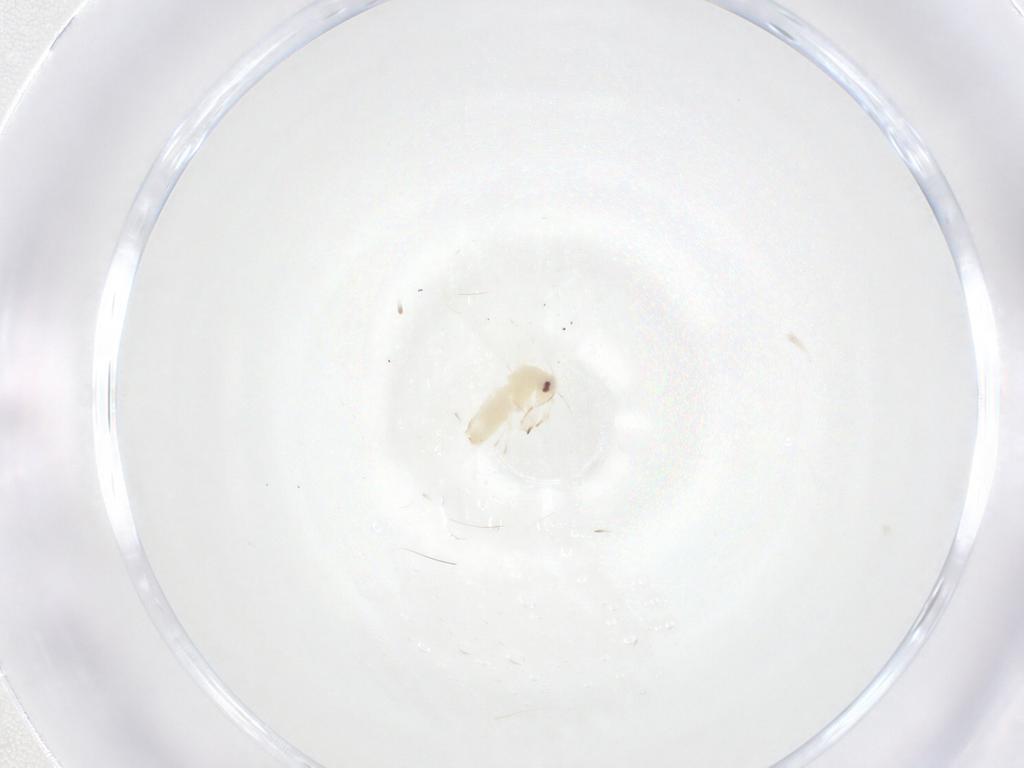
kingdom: Animalia
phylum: Arthropoda
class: Insecta
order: Hemiptera
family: Aleyrodidae
